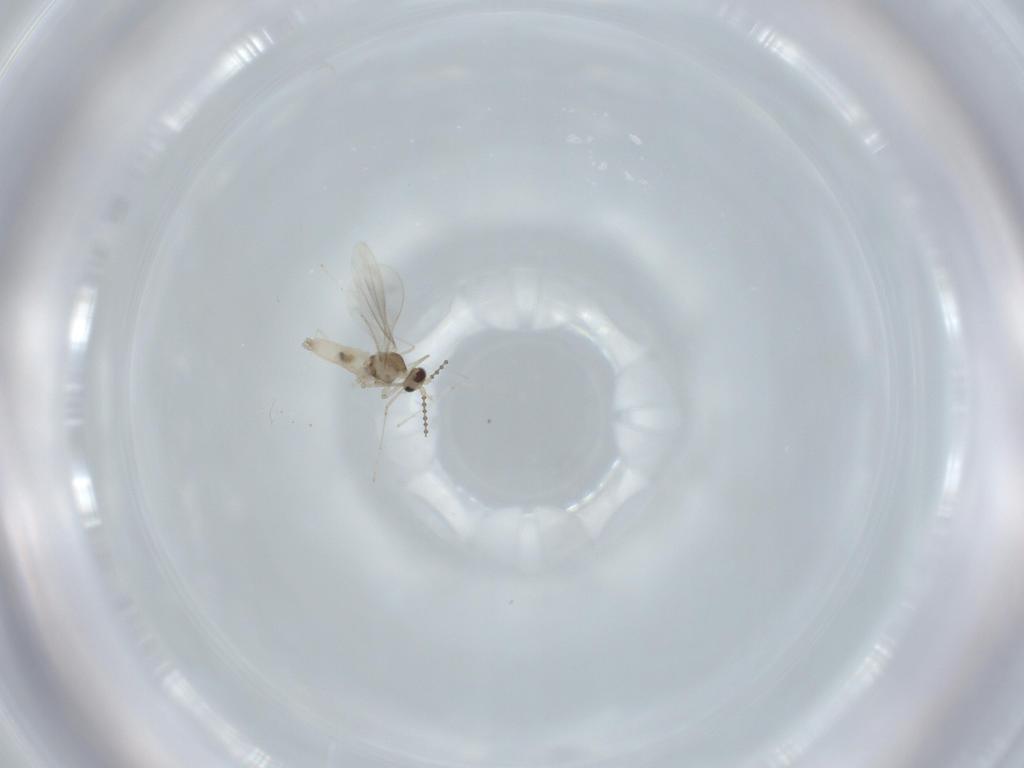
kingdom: Animalia
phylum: Arthropoda
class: Insecta
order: Diptera
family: Cecidomyiidae
